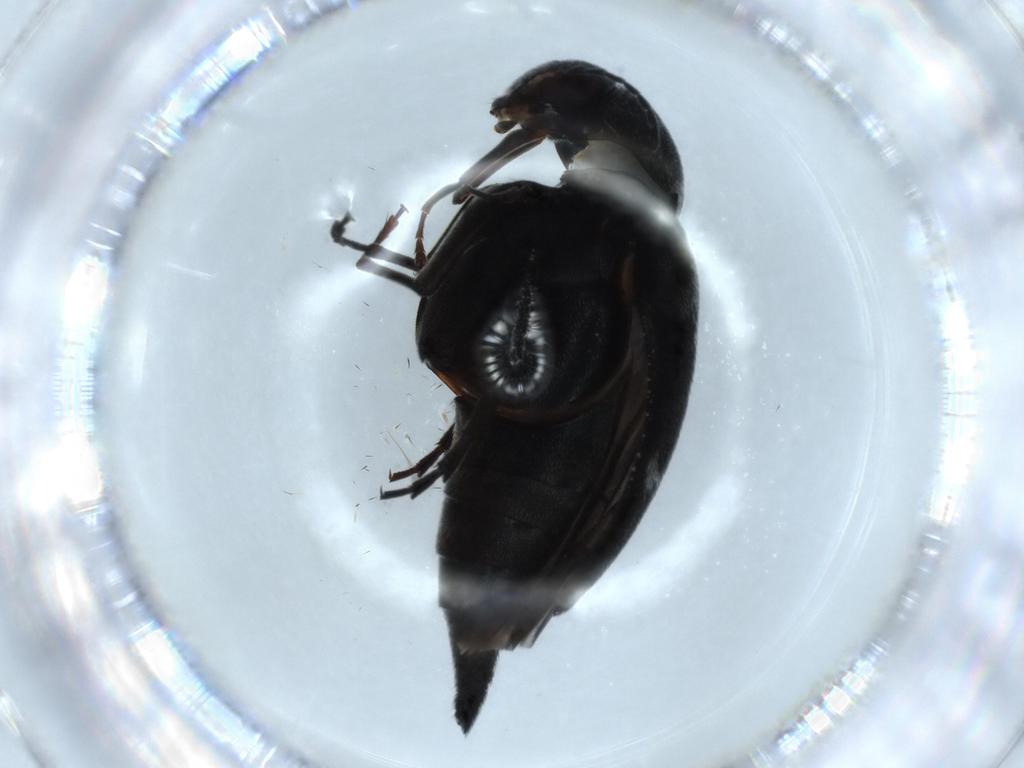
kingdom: Animalia
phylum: Arthropoda
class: Insecta
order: Coleoptera
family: Mordellidae
